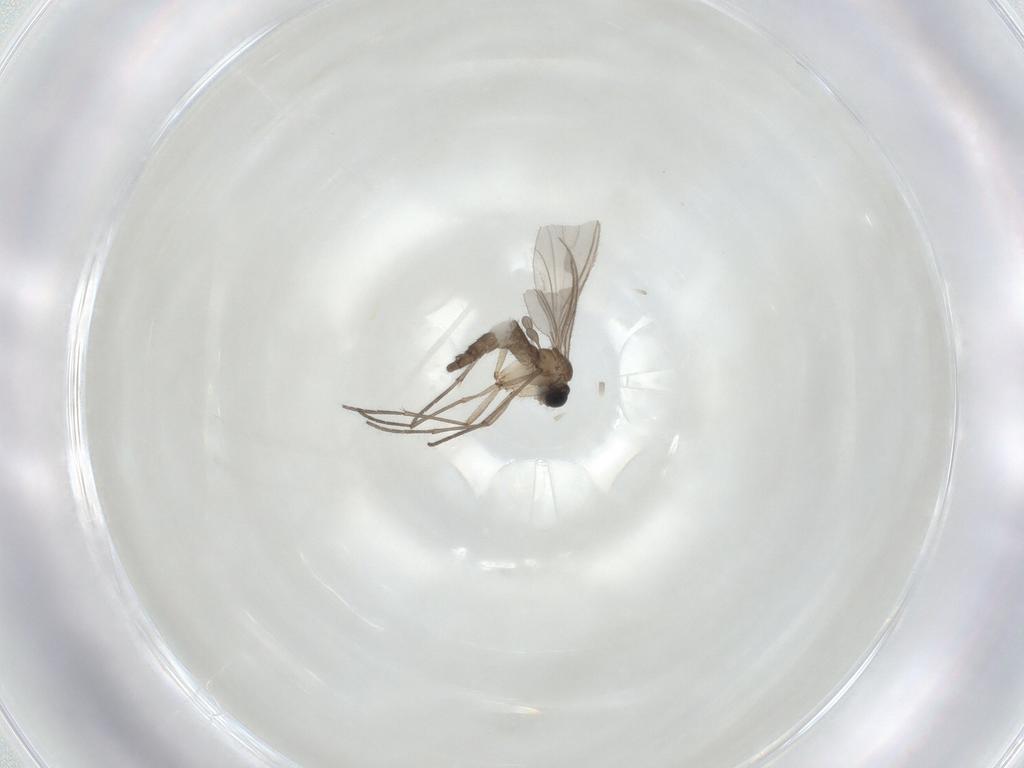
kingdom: Animalia
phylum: Arthropoda
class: Insecta
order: Diptera
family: Sciaridae
